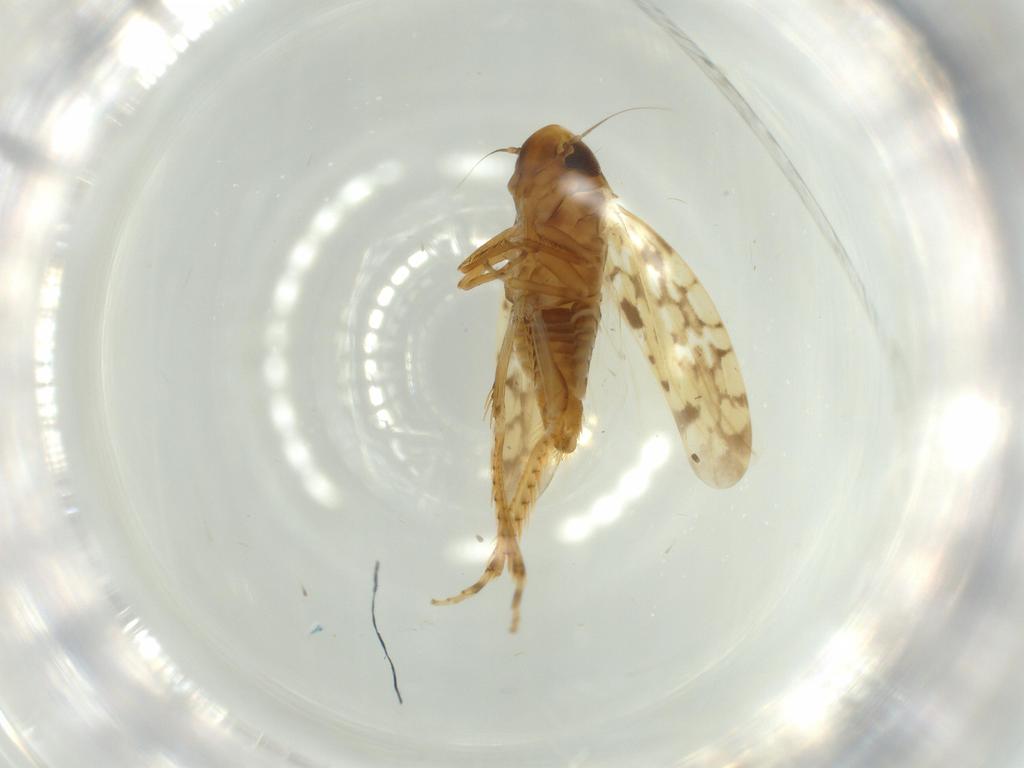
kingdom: Animalia
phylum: Arthropoda
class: Insecta
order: Hemiptera
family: Cicadellidae
